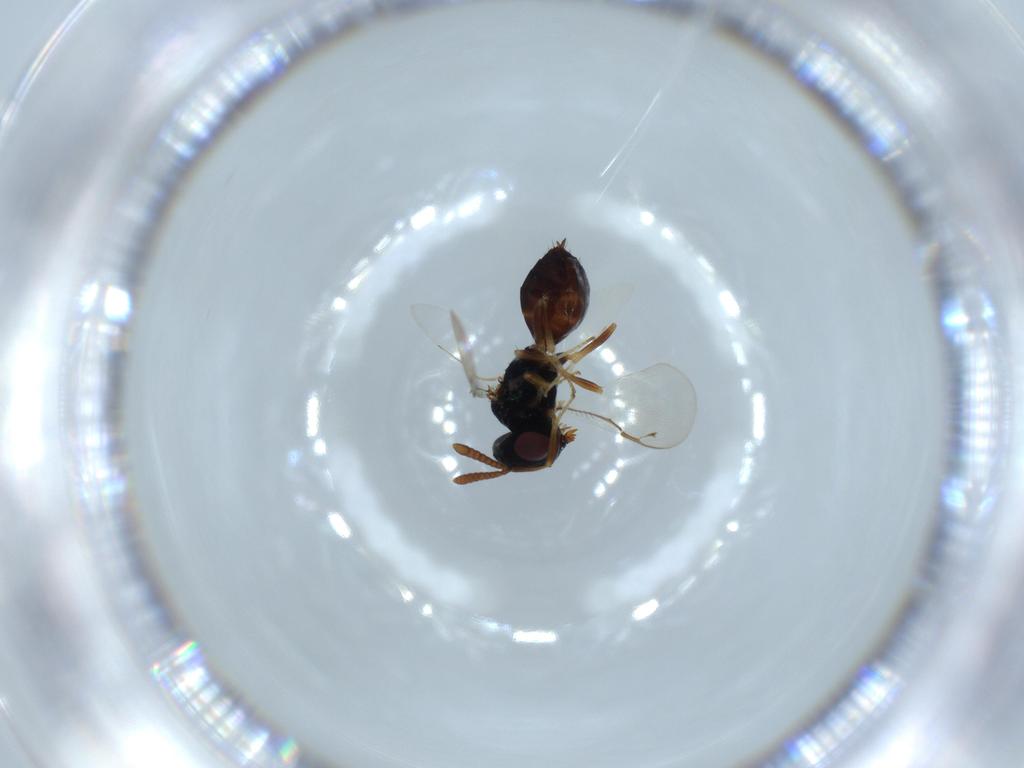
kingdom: Animalia
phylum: Arthropoda
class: Insecta
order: Hymenoptera
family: Pteromalidae
